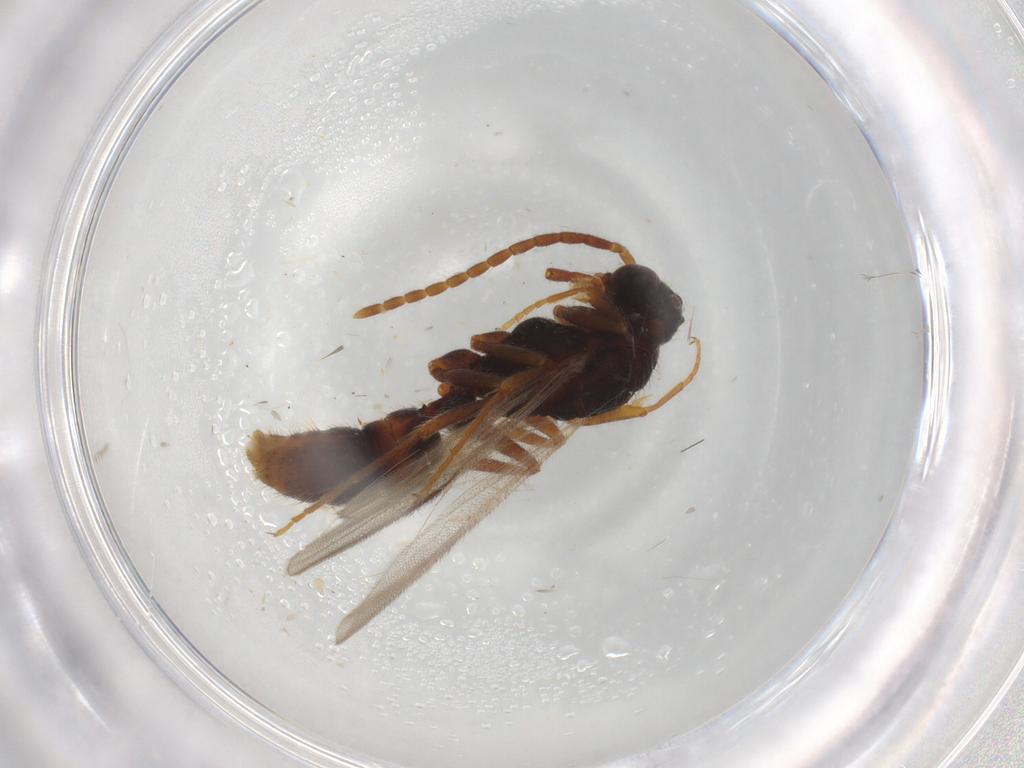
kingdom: Animalia
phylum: Arthropoda
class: Insecta
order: Hymenoptera
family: Formicidae
